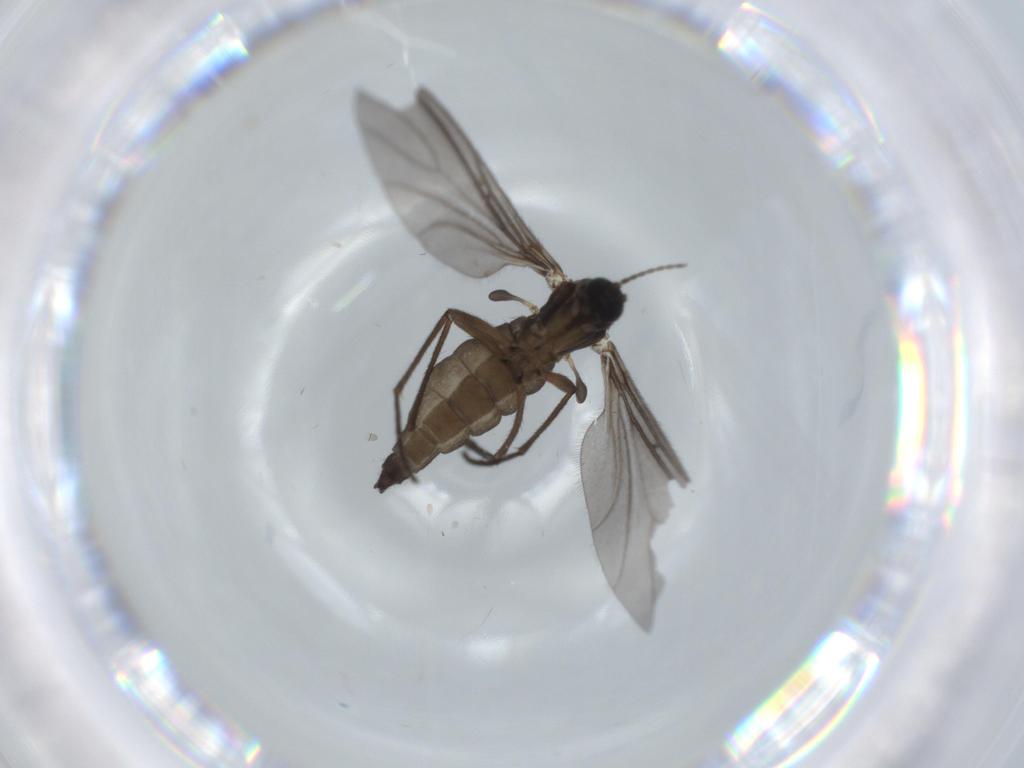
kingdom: Animalia
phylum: Arthropoda
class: Insecta
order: Diptera
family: Sciaridae
